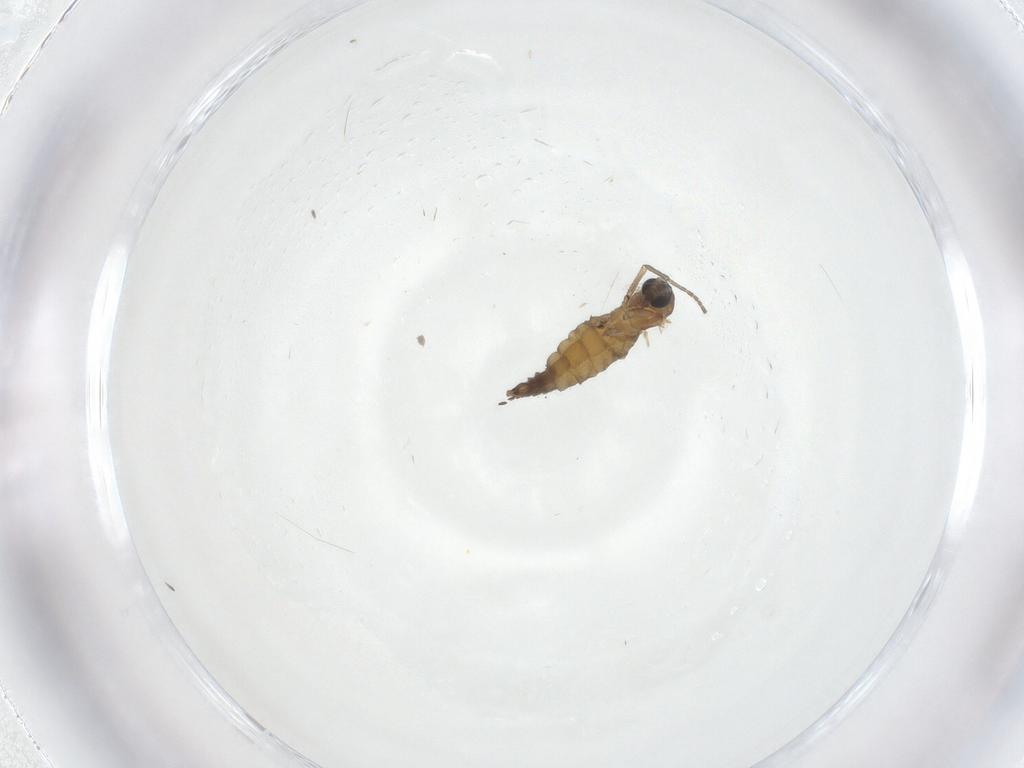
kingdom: Animalia
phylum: Arthropoda
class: Insecta
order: Diptera
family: Sciaridae
